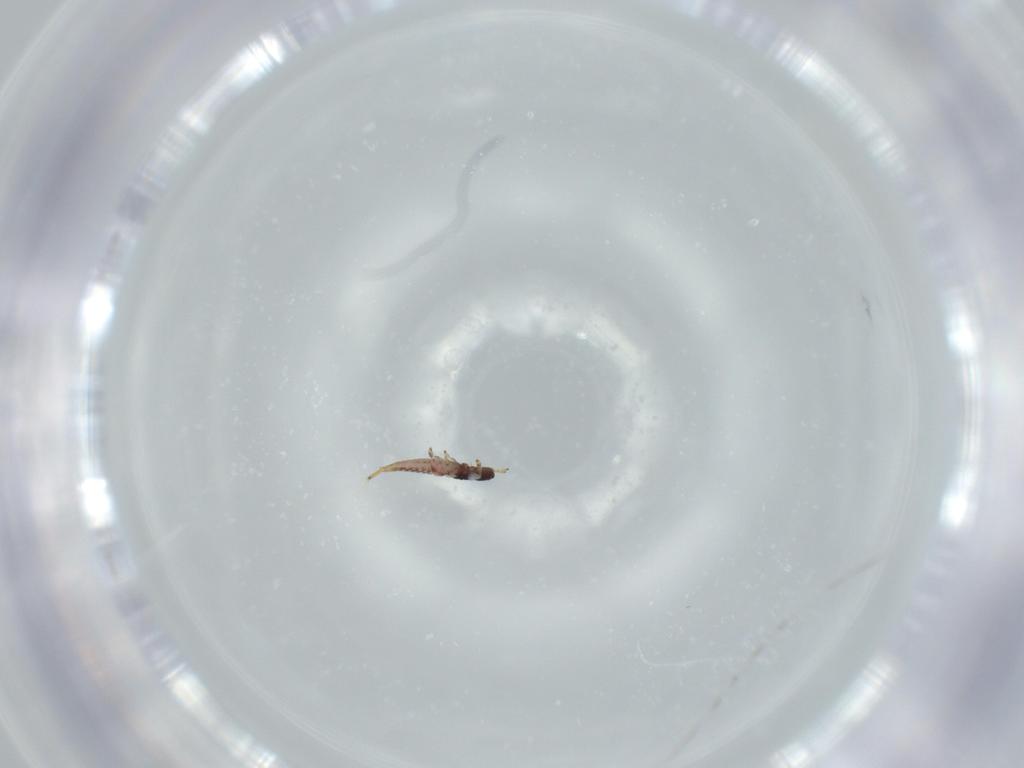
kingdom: Animalia
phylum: Arthropoda
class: Insecta
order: Thysanoptera
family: Phlaeothripidae
